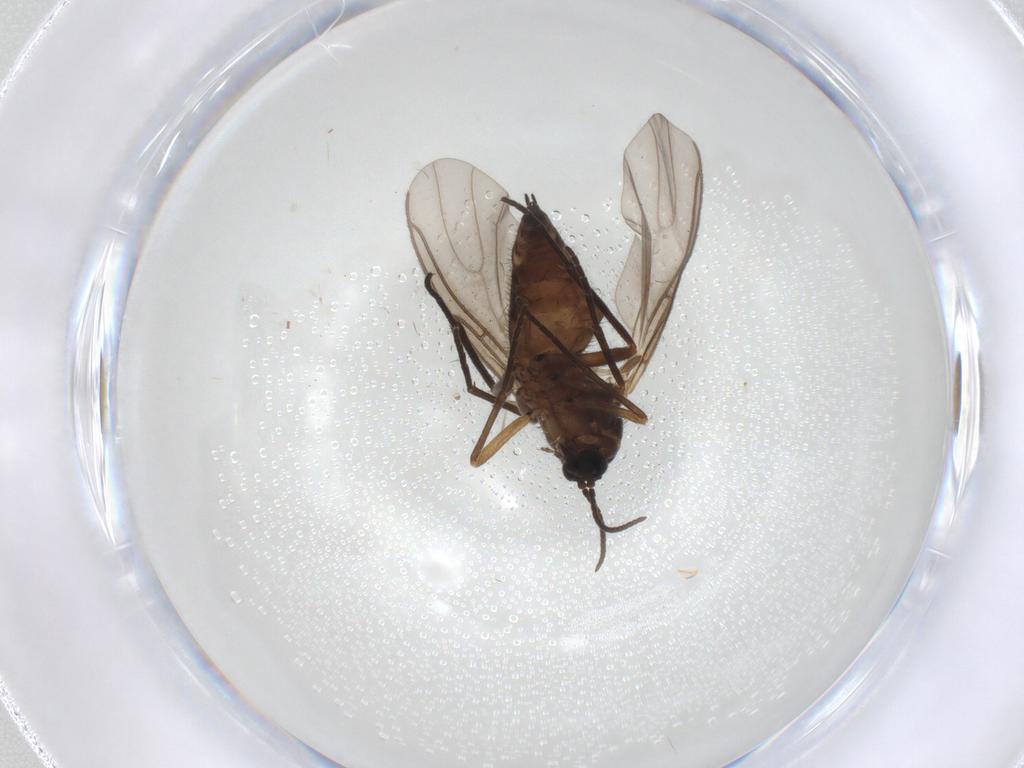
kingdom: Animalia
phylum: Arthropoda
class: Insecta
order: Diptera
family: Sciaridae
